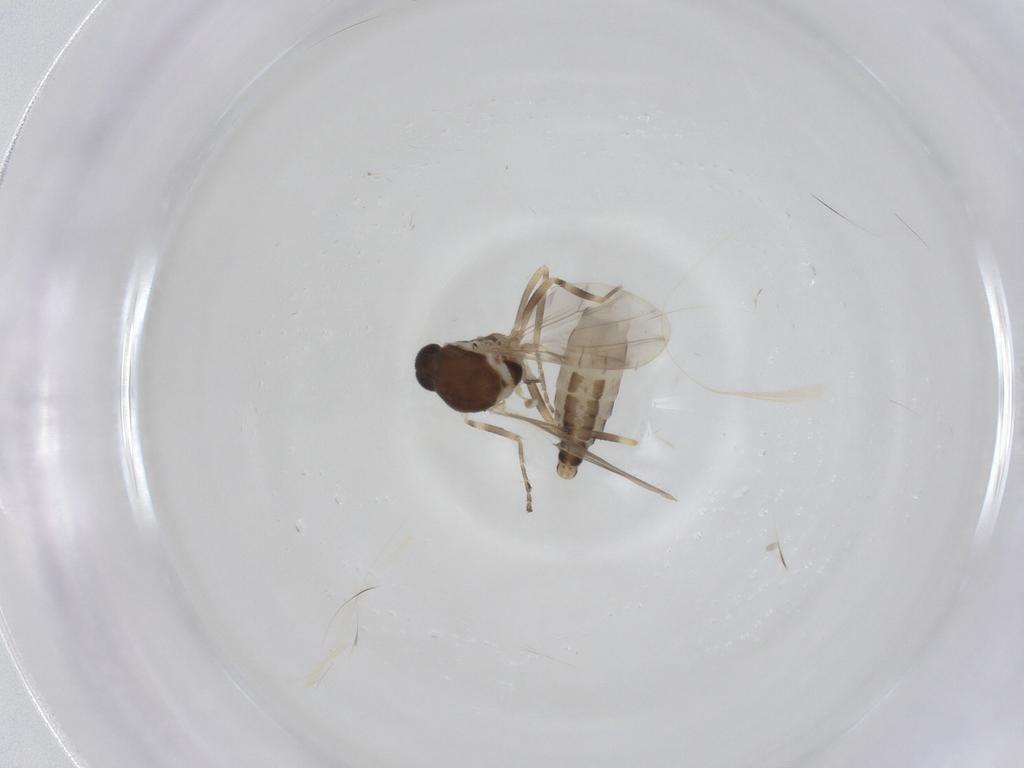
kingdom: Animalia
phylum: Arthropoda
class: Insecta
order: Diptera
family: Ceratopogonidae
